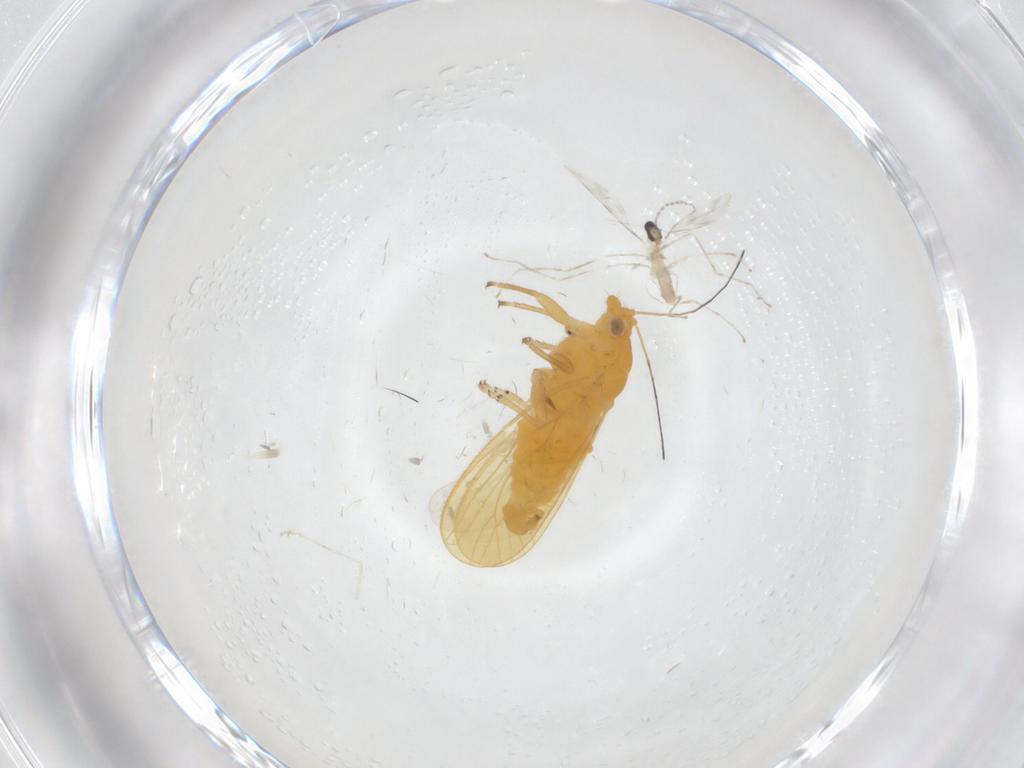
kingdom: Animalia
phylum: Arthropoda
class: Insecta
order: Diptera
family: Cecidomyiidae
